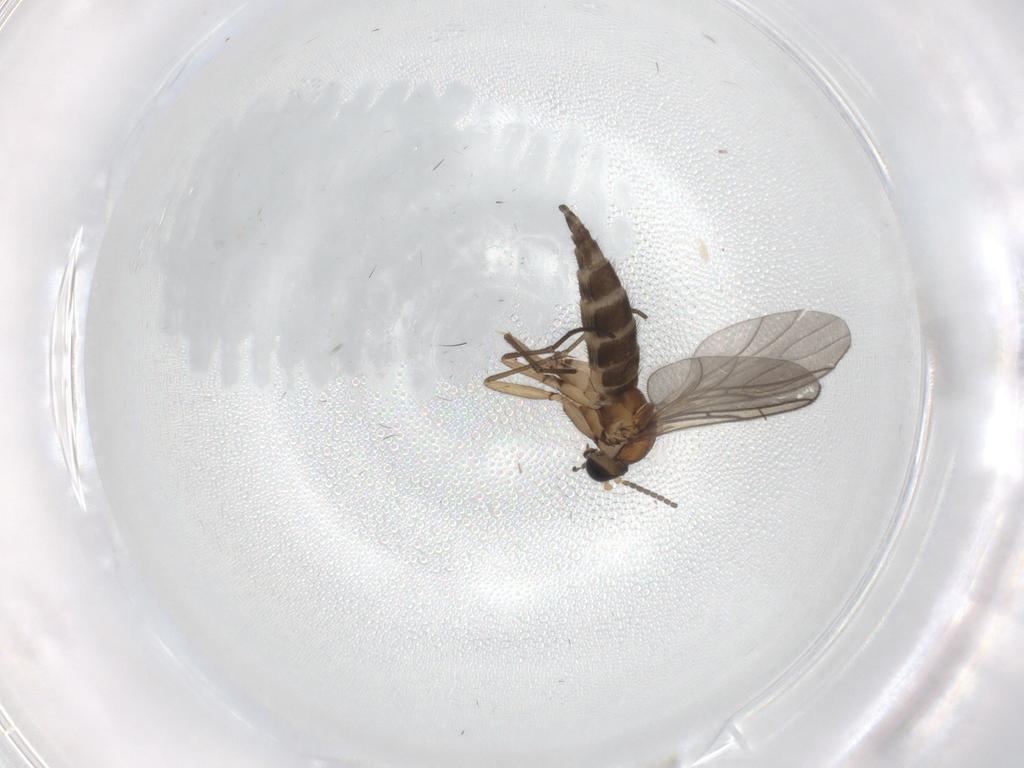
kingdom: Animalia
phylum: Arthropoda
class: Insecta
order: Diptera
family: Sciaridae
